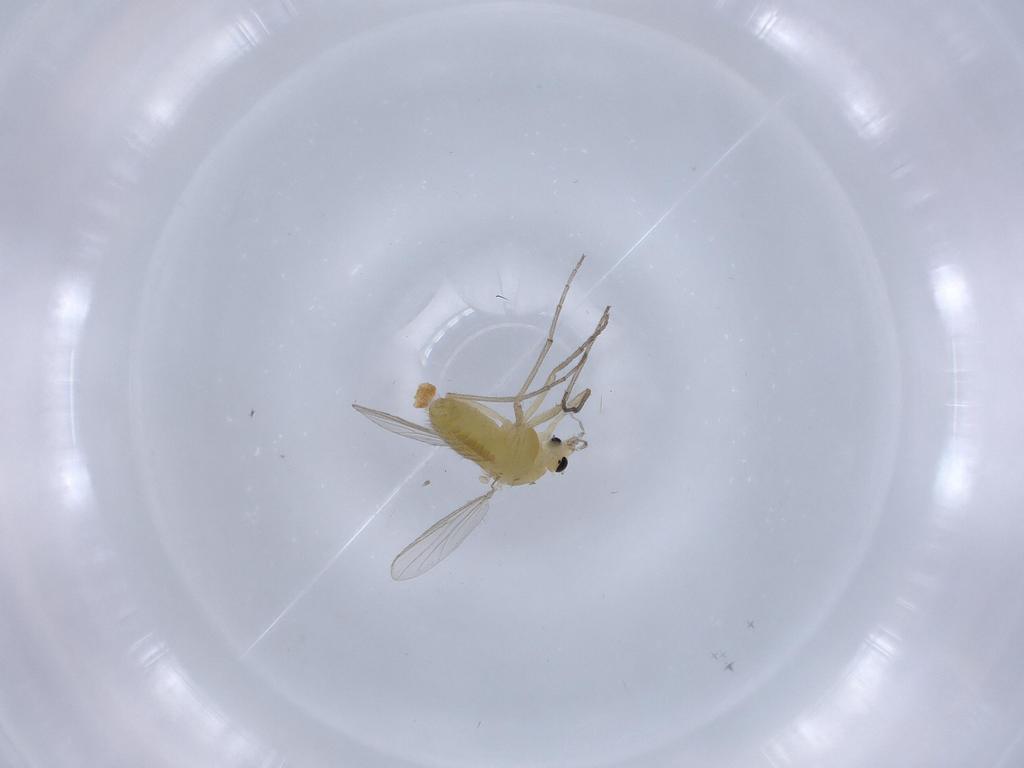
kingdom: Animalia
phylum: Arthropoda
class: Insecta
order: Diptera
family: Chironomidae
